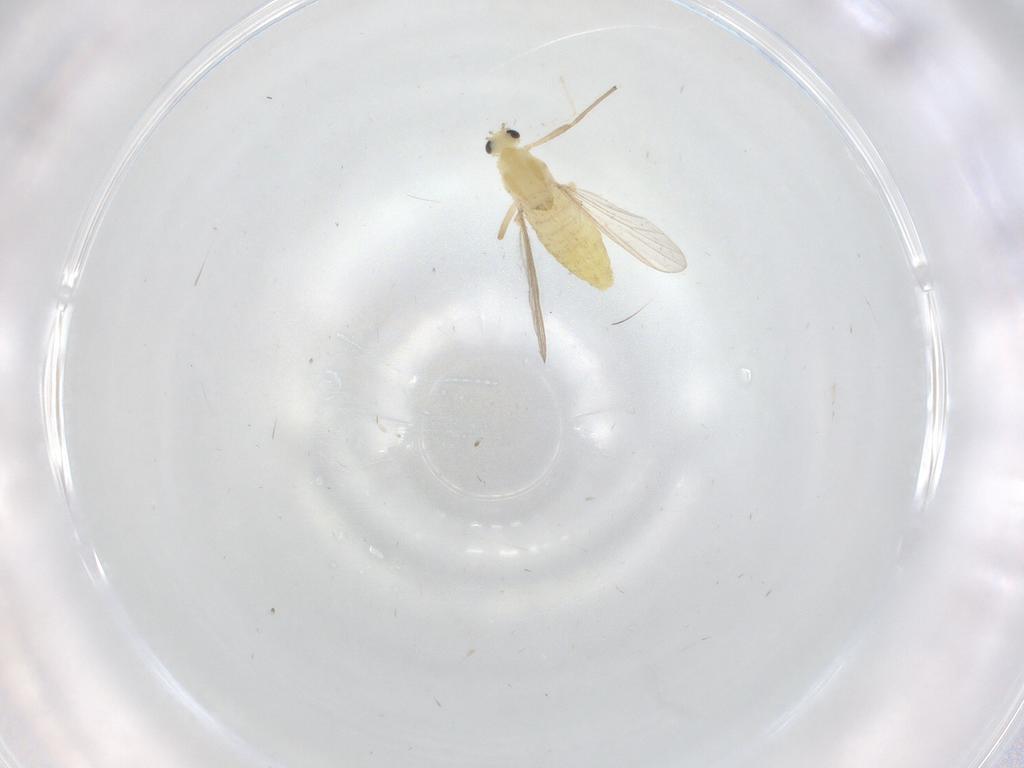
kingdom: Animalia
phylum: Arthropoda
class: Insecta
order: Diptera
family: Chironomidae
